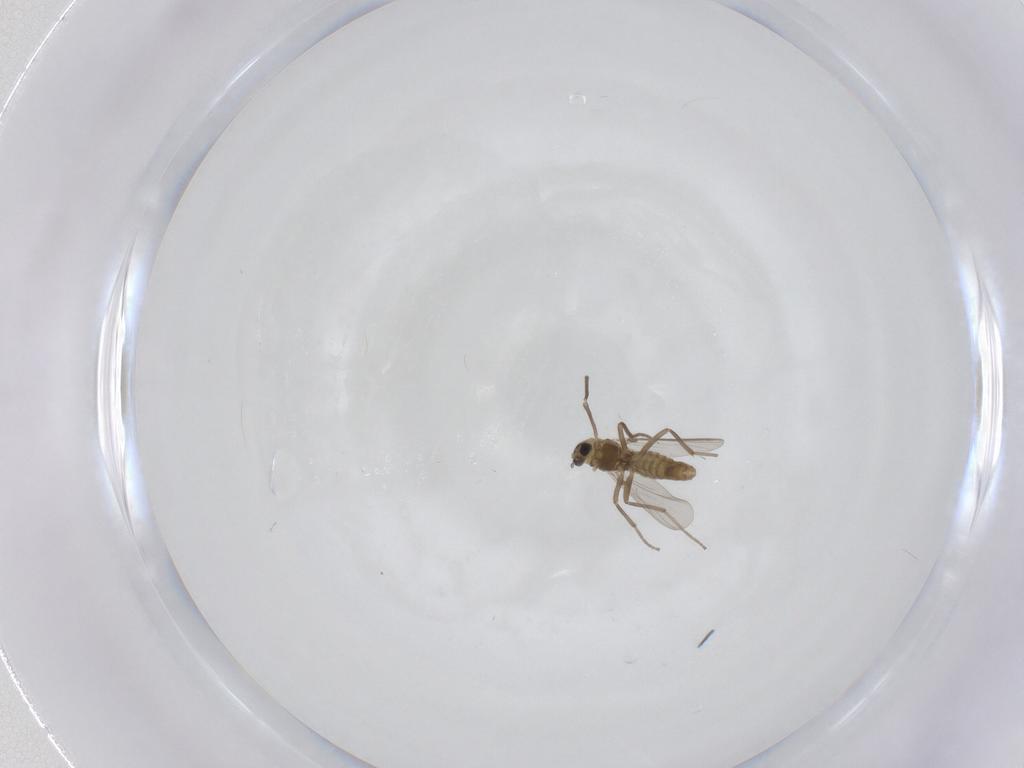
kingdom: Animalia
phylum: Arthropoda
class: Insecta
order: Diptera
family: Chironomidae
